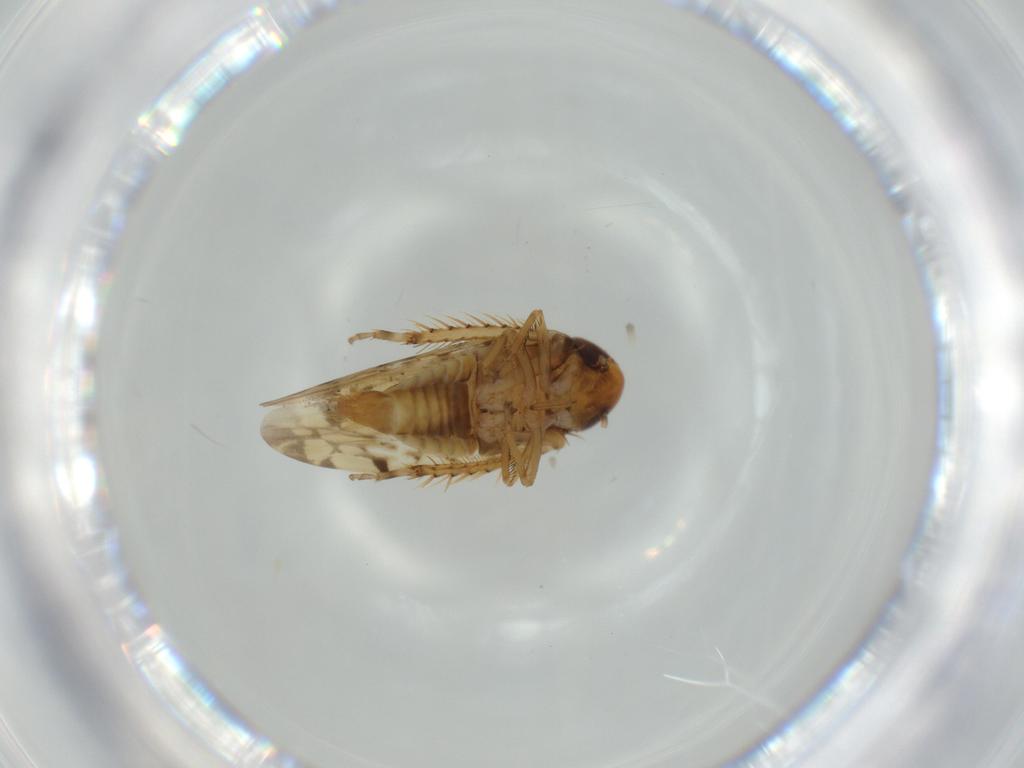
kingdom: Animalia
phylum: Arthropoda
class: Insecta
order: Hemiptera
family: Cicadellidae
